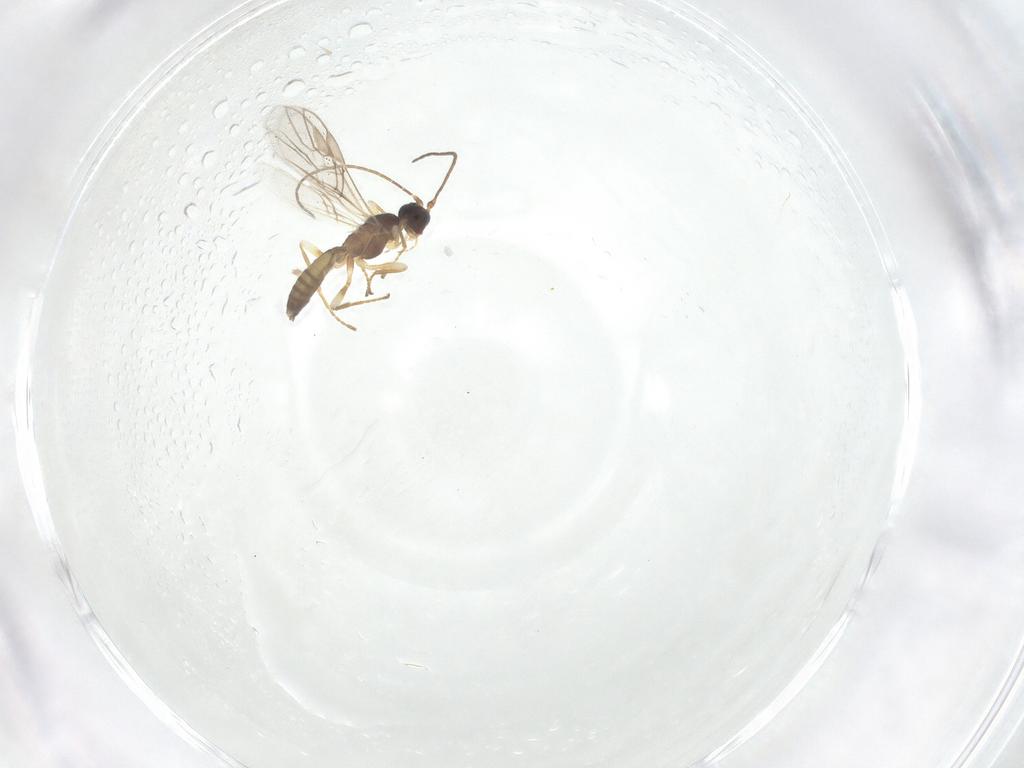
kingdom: Animalia
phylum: Arthropoda
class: Insecta
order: Hymenoptera
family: Braconidae
